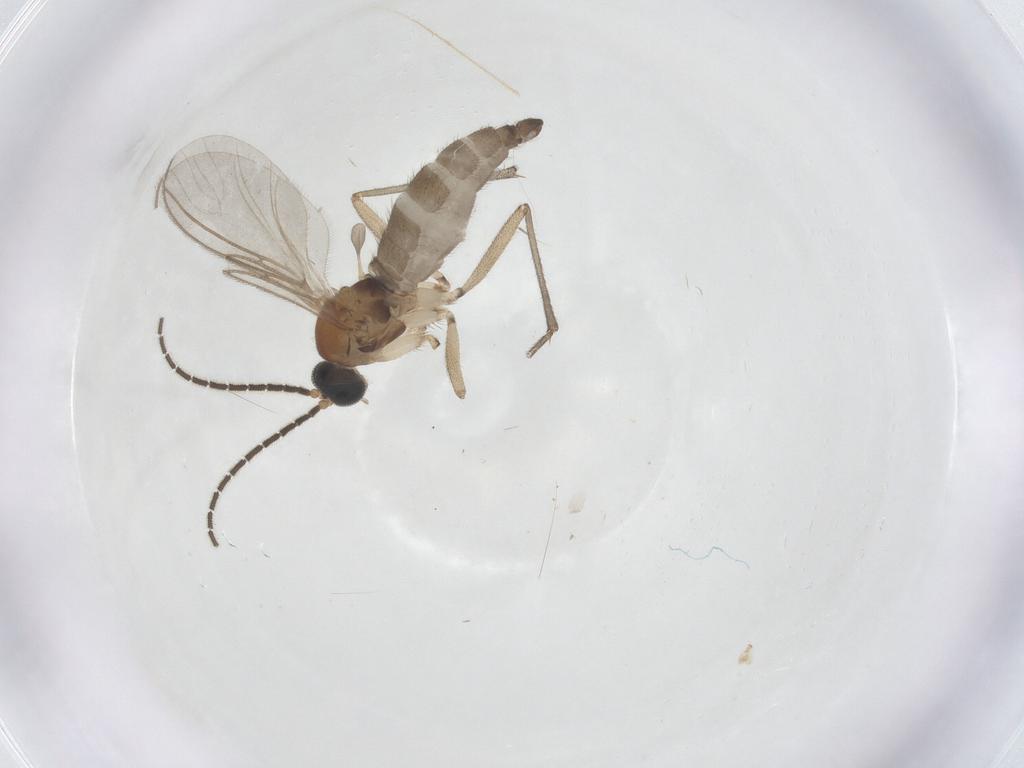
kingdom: Animalia
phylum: Arthropoda
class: Insecta
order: Diptera
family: Sciaridae
